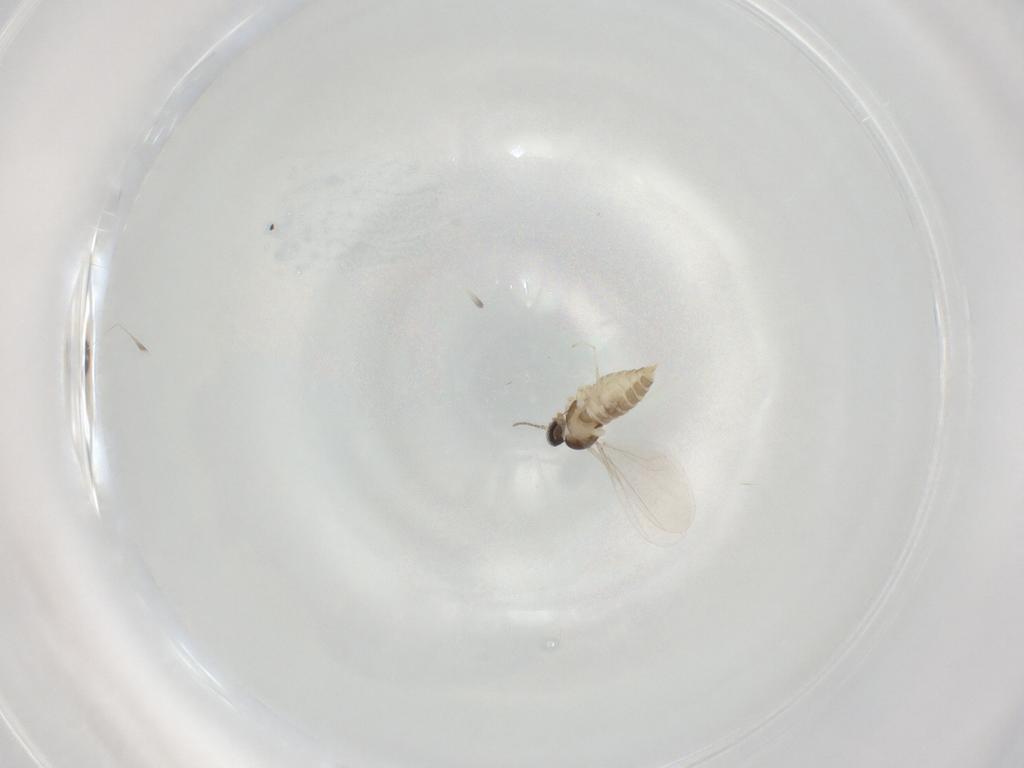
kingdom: Animalia
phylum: Arthropoda
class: Insecta
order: Diptera
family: Cecidomyiidae
